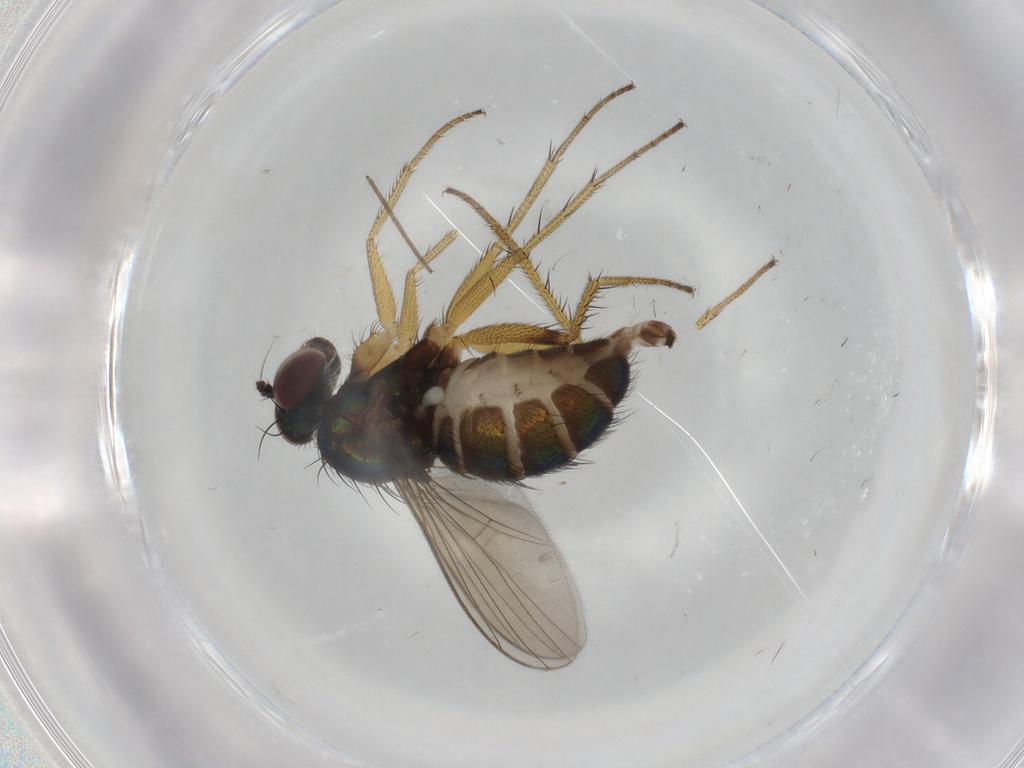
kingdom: Animalia
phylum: Arthropoda
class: Insecta
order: Diptera
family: Dolichopodidae
